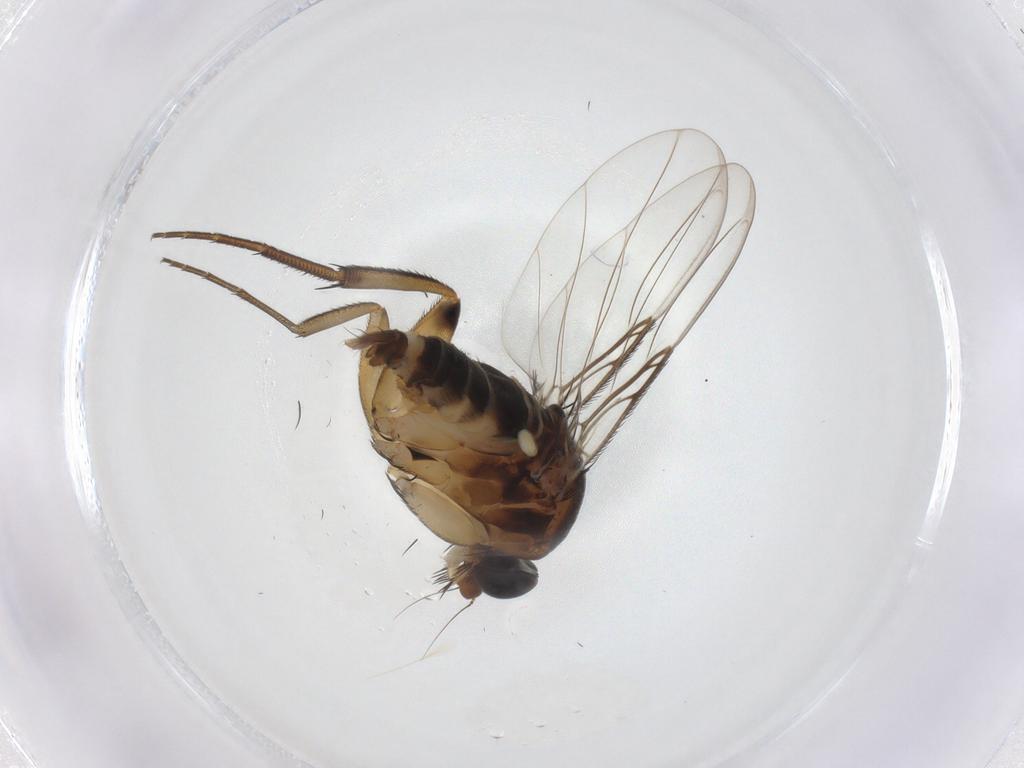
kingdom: Animalia
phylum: Arthropoda
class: Insecta
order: Diptera
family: Phoridae
